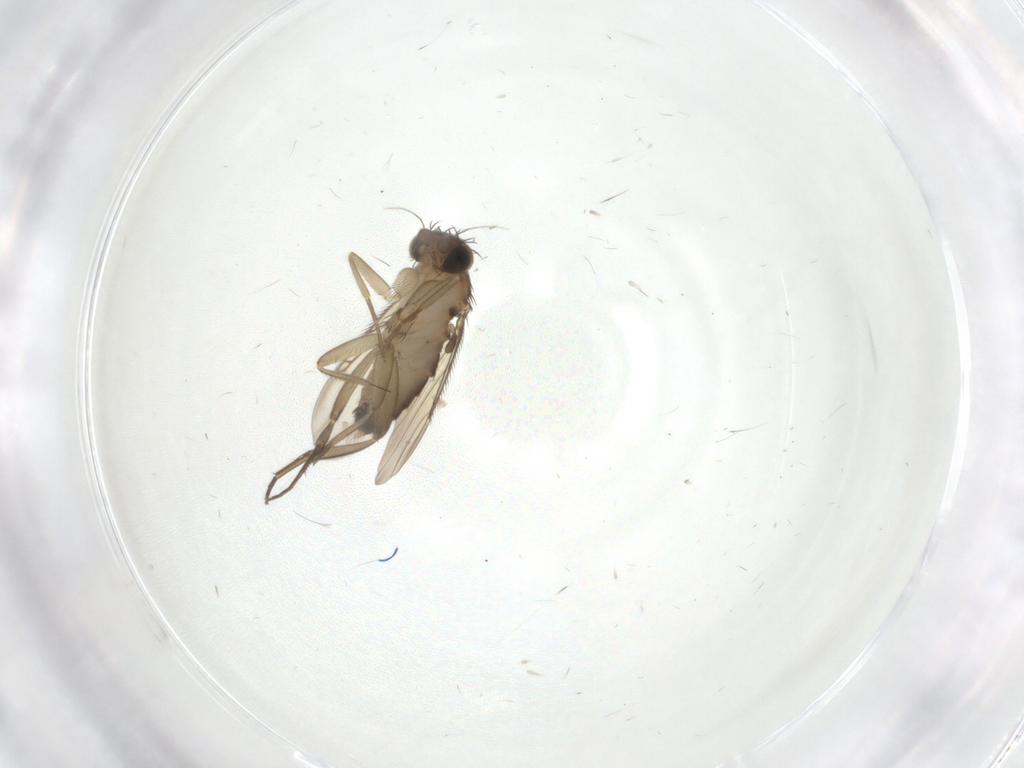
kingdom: Animalia
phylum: Arthropoda
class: Insecta
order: Diptera
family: Phoridae
